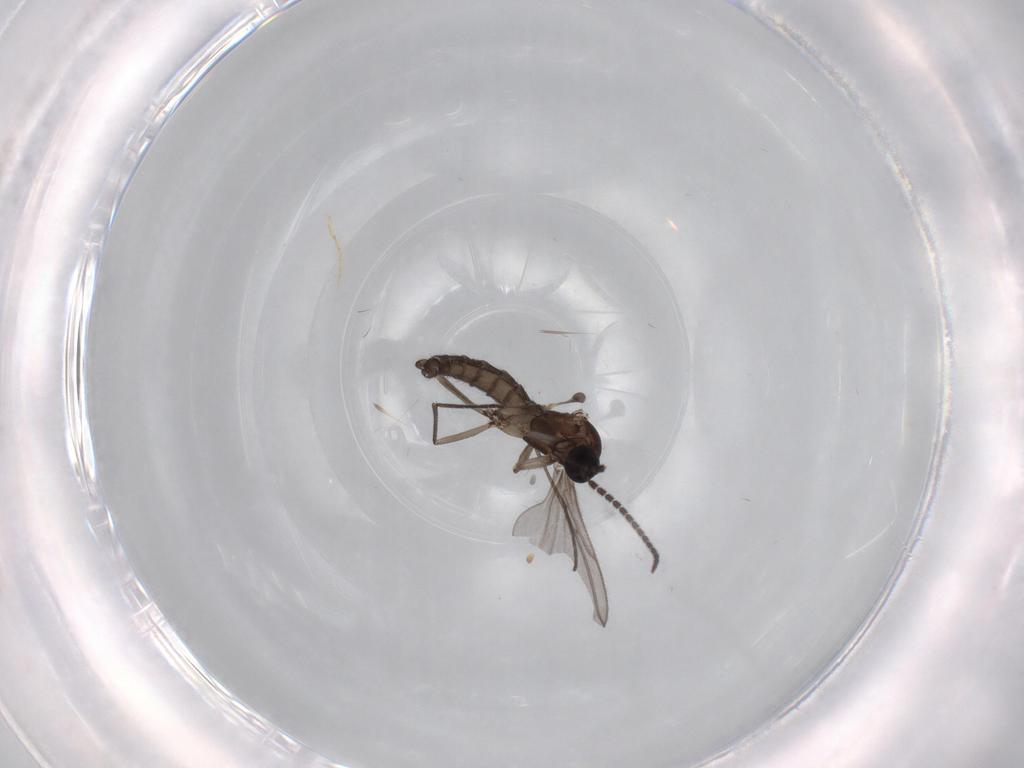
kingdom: Animalia
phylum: Arthropoda
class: Insecta
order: Diptera
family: Sciaridae
